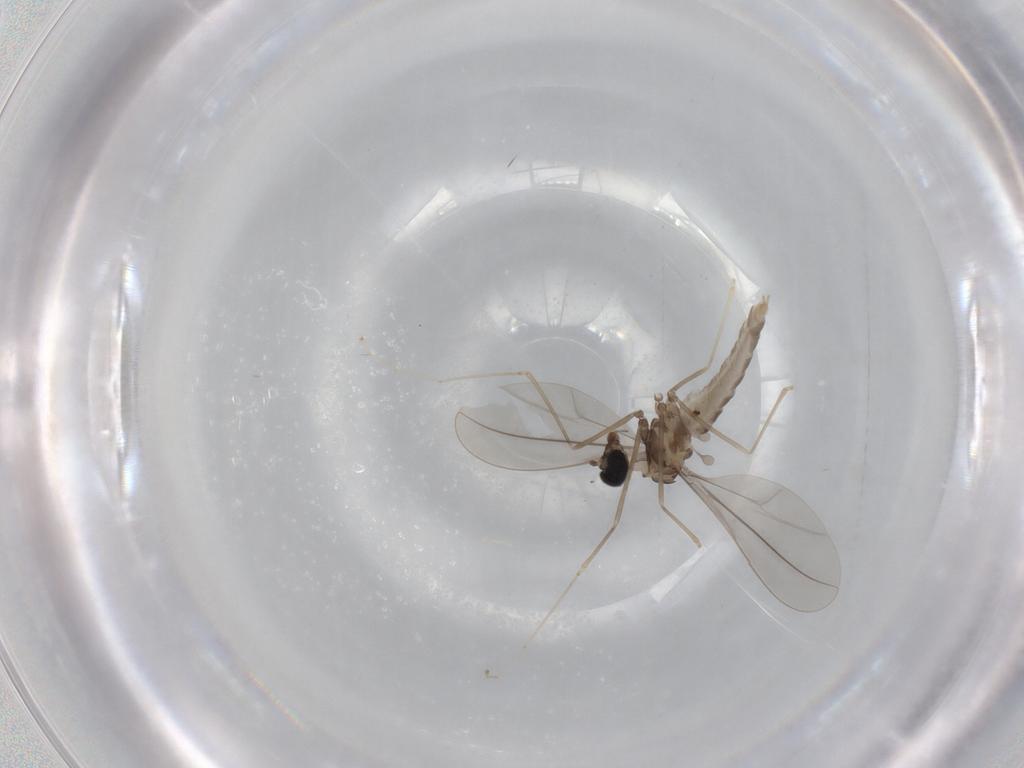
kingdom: Animalia
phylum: Arthropoda
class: Insecta
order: Diptera
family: Cecidomyiidae
